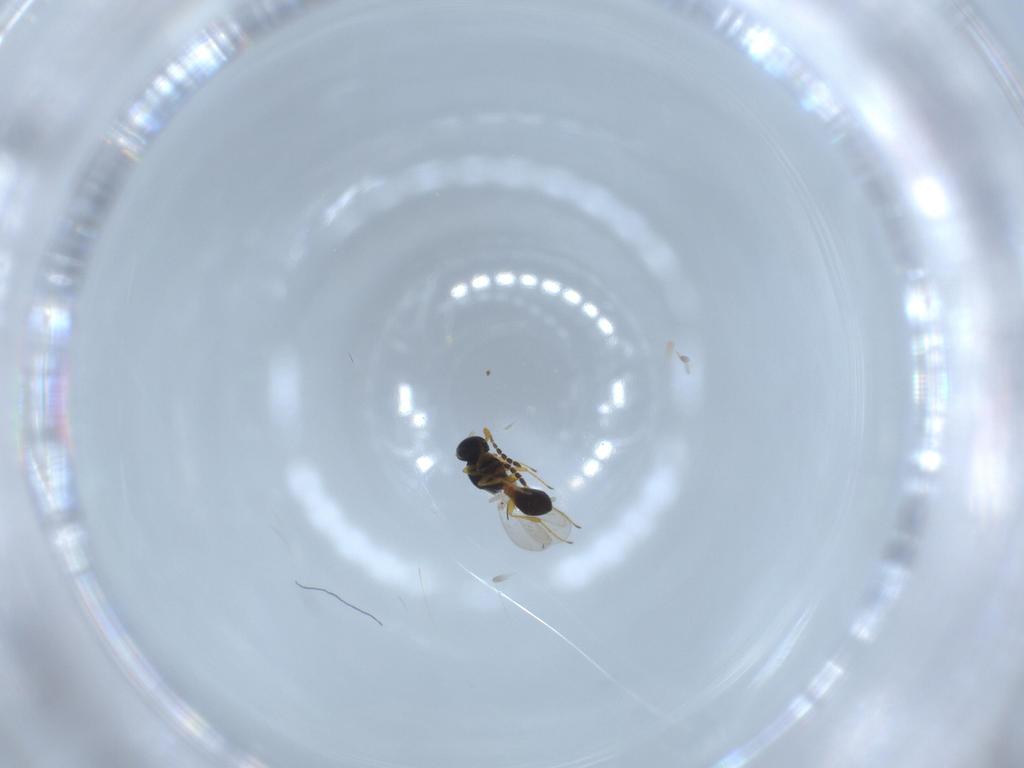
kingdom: Animalia
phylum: Arthropoda
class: Insecta
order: Hymenoptera
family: Platygastridae
